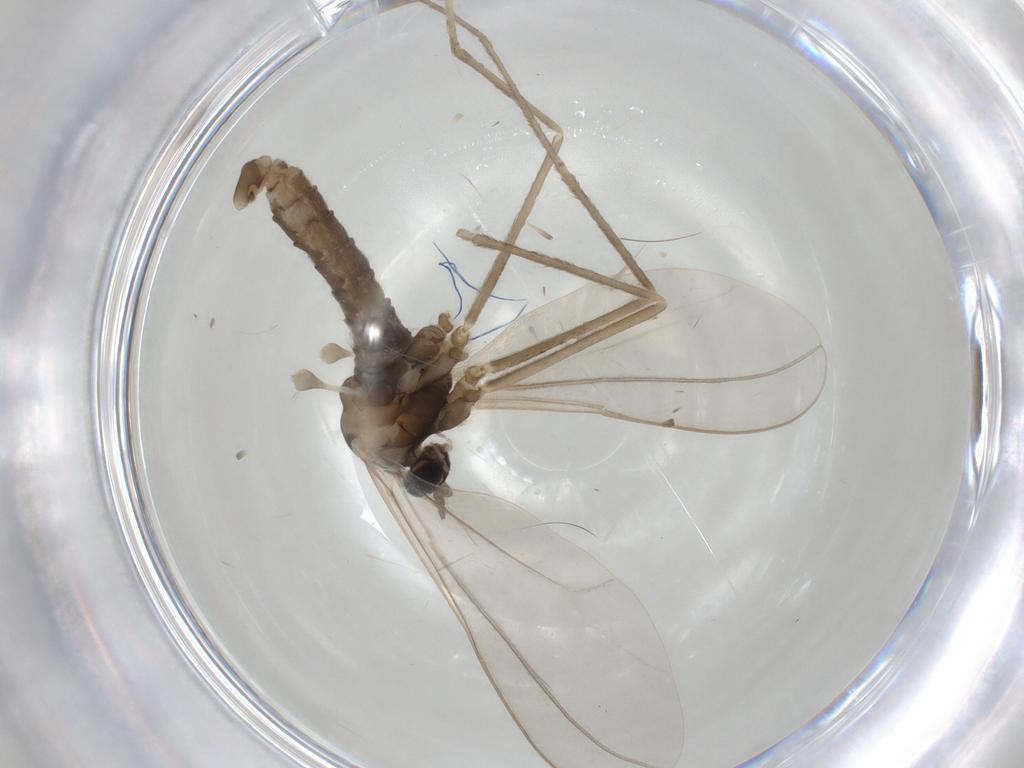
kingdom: Animalia
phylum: Arthropoda
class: Insecta
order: Diptera
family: Cecidomyiidae
